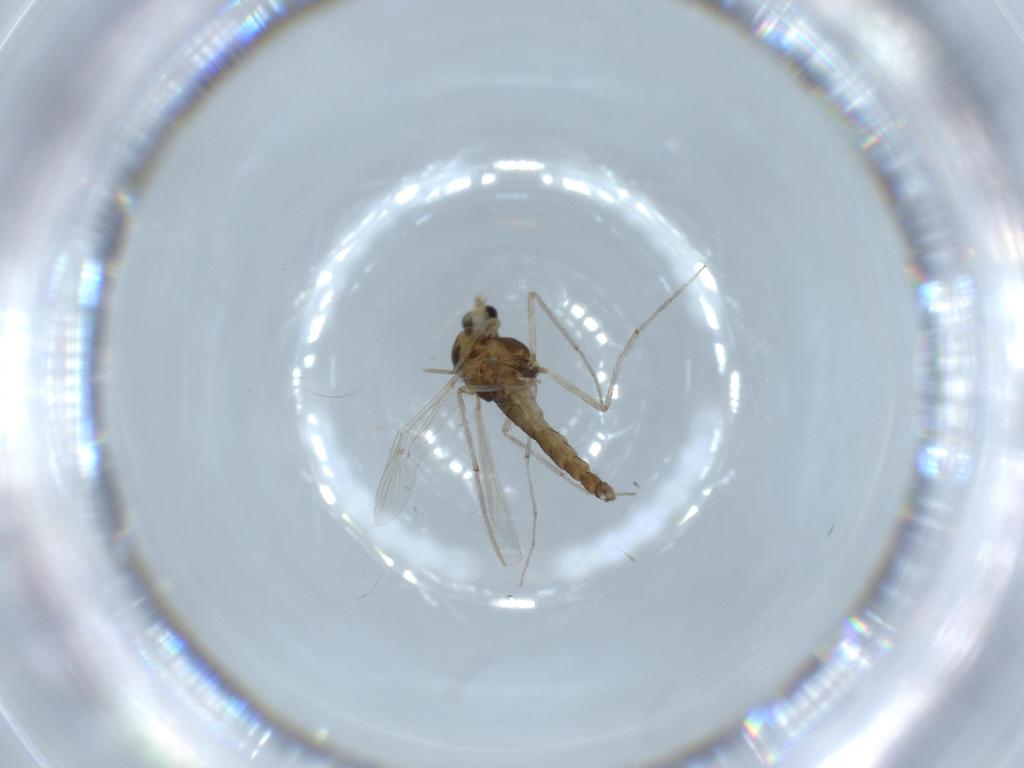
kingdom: Animalia
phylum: Arthropoda
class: Insecta
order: Diptera
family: Chironomidae
